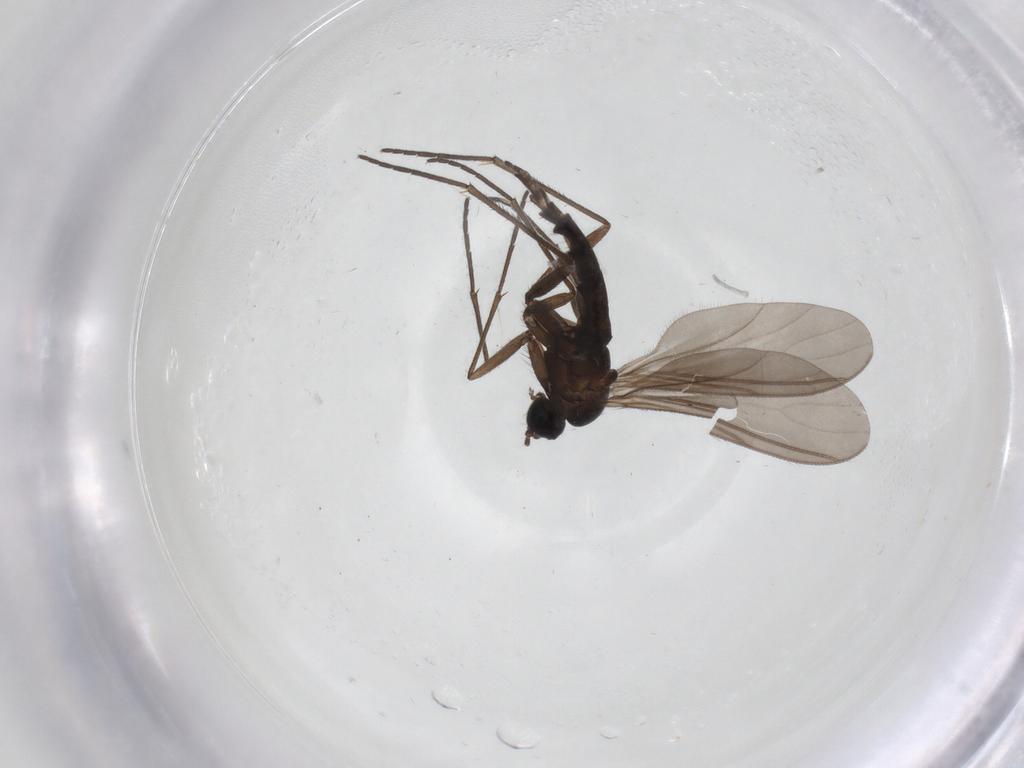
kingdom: Animalia
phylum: Arthropoda
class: Insecta
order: Diptera
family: Sciaridae
